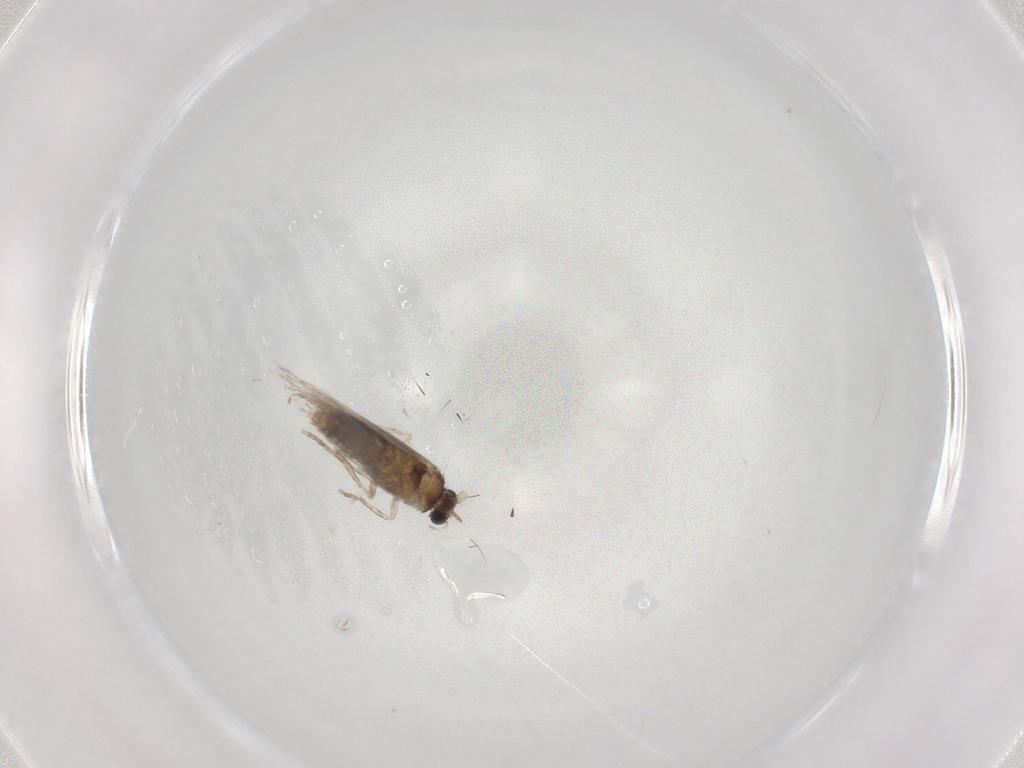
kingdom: Animalia
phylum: Arthropoda
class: Insecta
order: Lepidoptera
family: Nepticulidae
